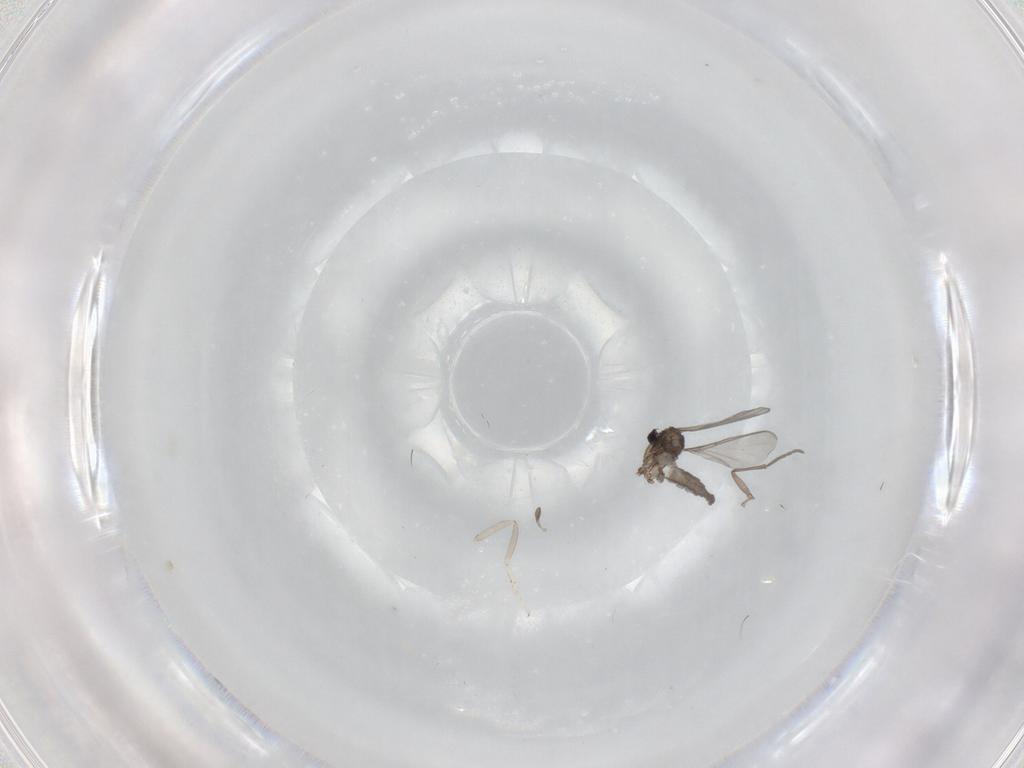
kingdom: Animalia
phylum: Arthropoda
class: Insecta
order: Diptera
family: Sciaridae
